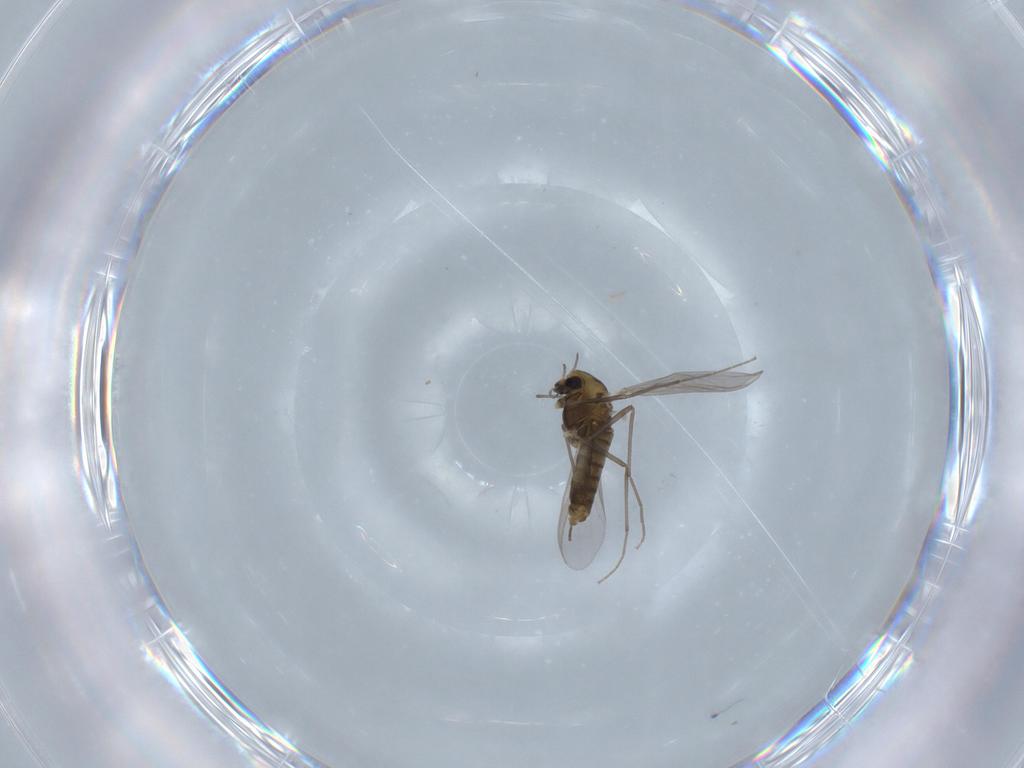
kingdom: Animalia
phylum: Arthropoda
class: Insecta
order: Diptera
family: Chironomidae
